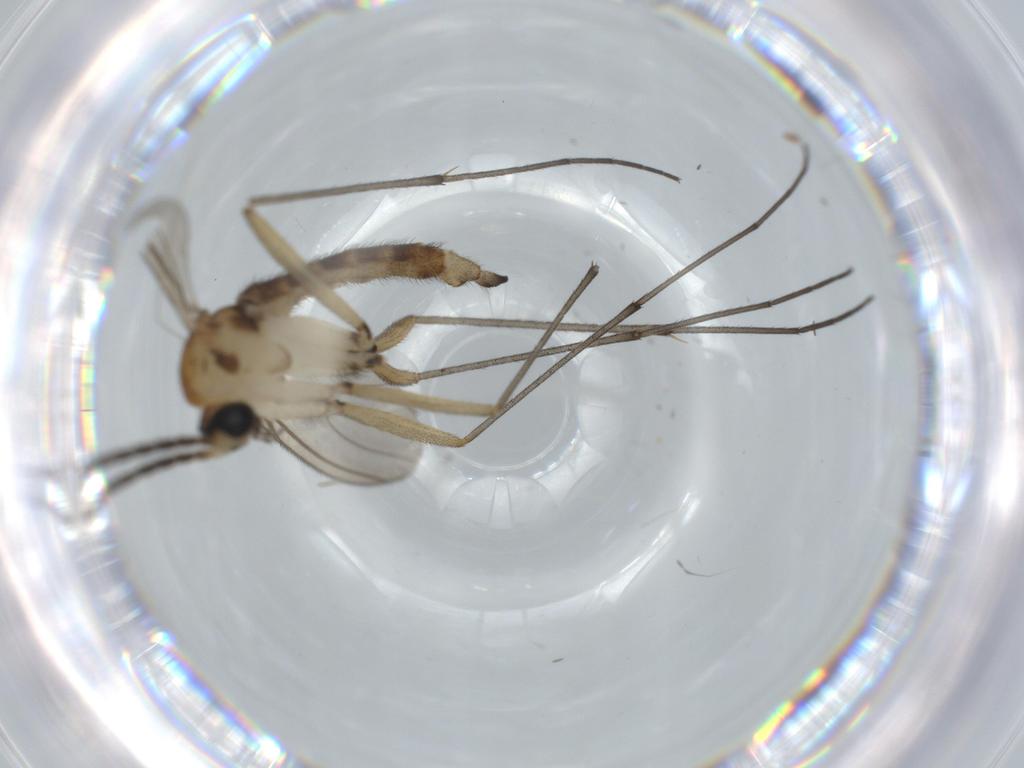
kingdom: Animalia
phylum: Arthropoda
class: Insecta
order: Diptera
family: Sciaridae
